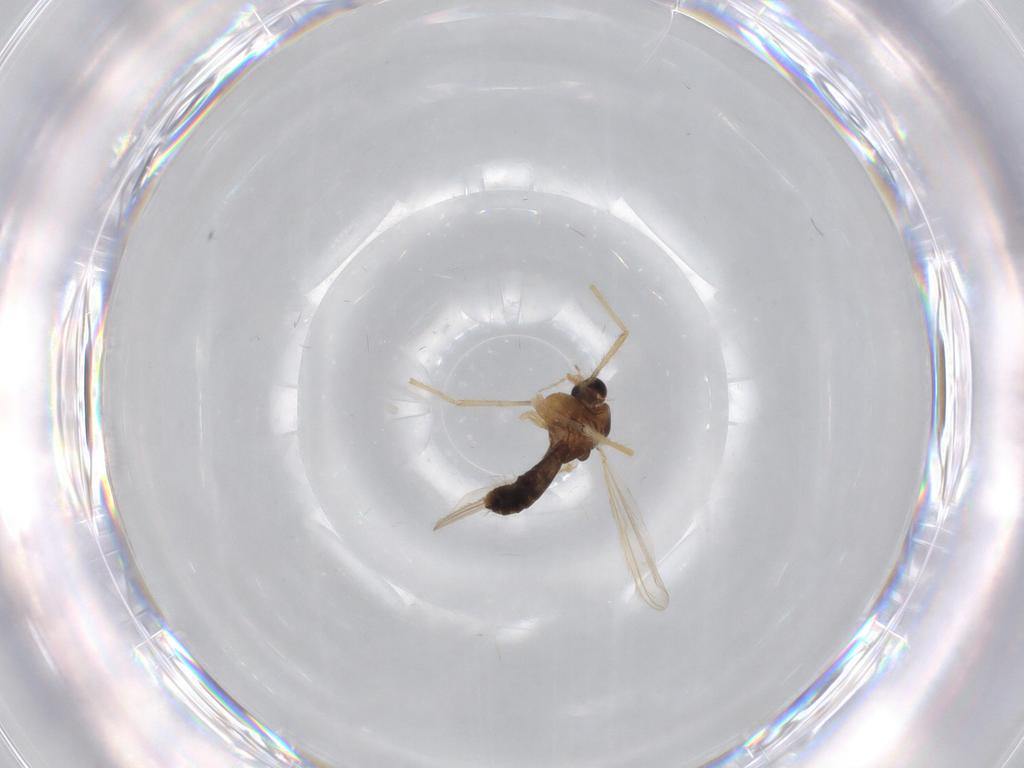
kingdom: Animalia
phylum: Arthropoda
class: Insecta
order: Diptera
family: Chironomidae
